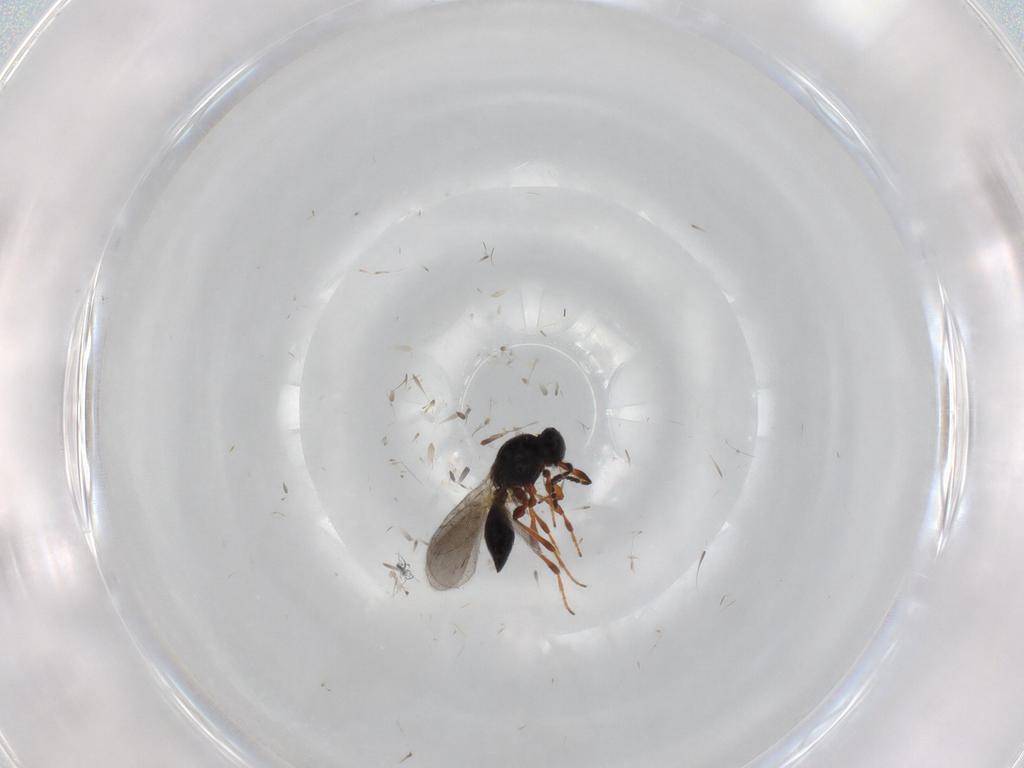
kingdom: Animalia
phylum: Arthropoda
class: Insecta
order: Hymenoptera
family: Platygastridae
